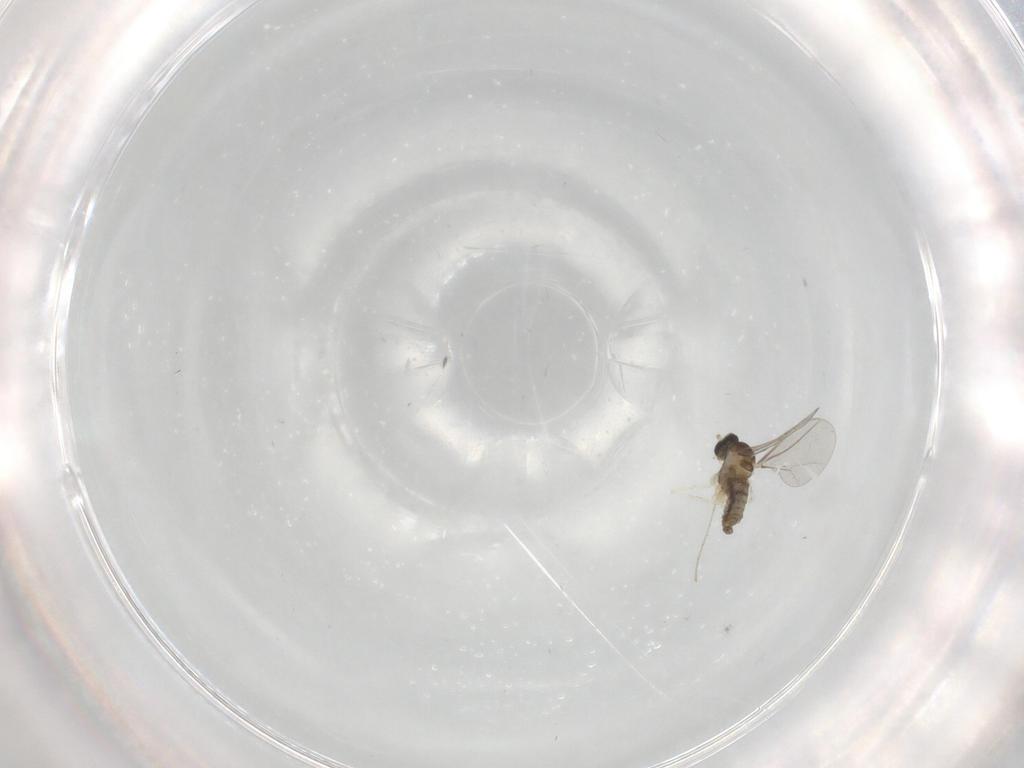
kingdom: Animalia
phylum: Arthropoda
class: Insecta
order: Diptera
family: Cecidomyiidae
